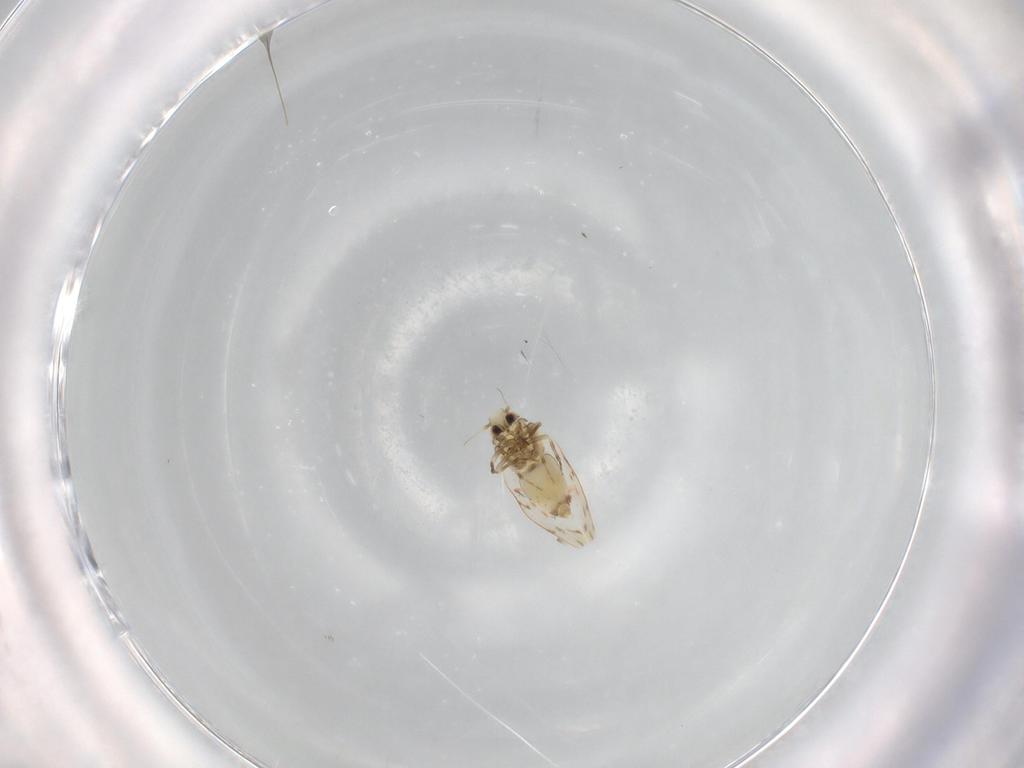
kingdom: Animalia
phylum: Arthropoda
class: Insecta
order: Hemiptera
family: Aleyrodidae
